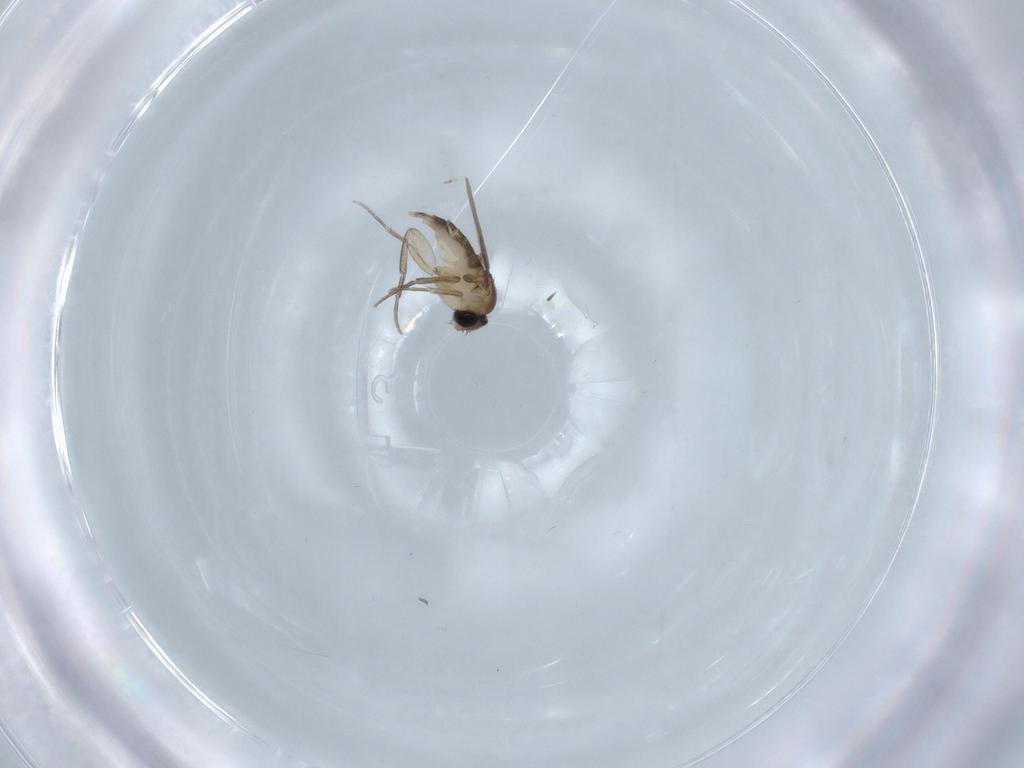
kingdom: Animalia
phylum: Arthropoda
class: Insecta
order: Diptera
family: Phoridae
